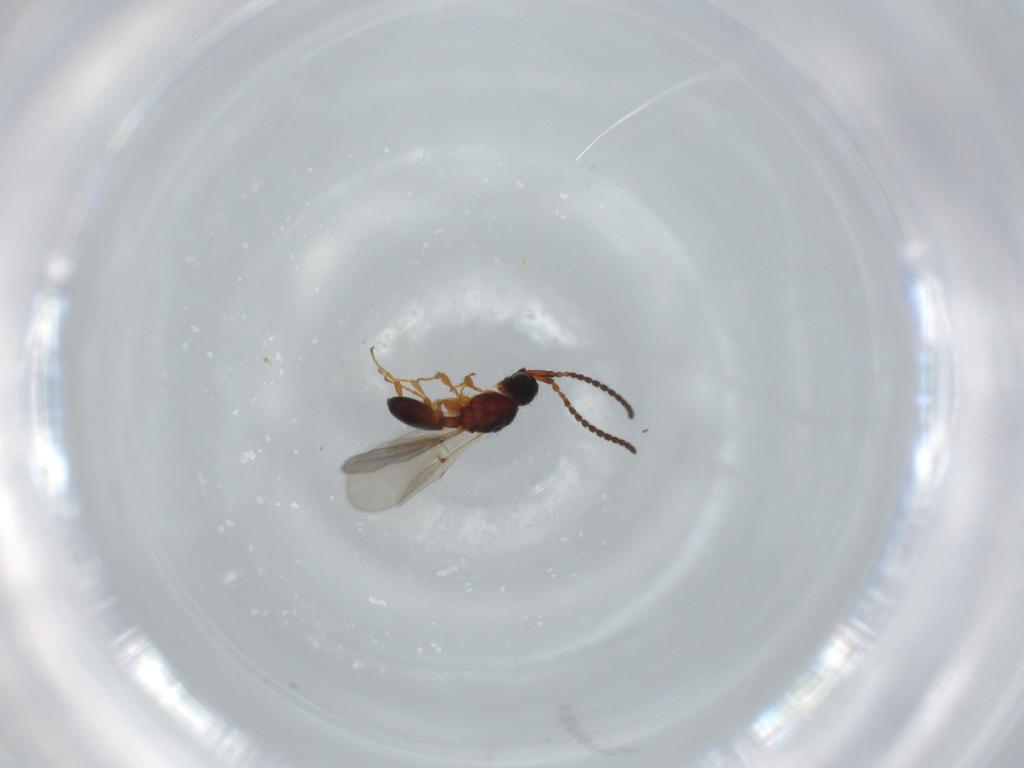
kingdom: Animalia
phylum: Arthropoda
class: Insecta
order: Hymenoptera
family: Diapriidae
